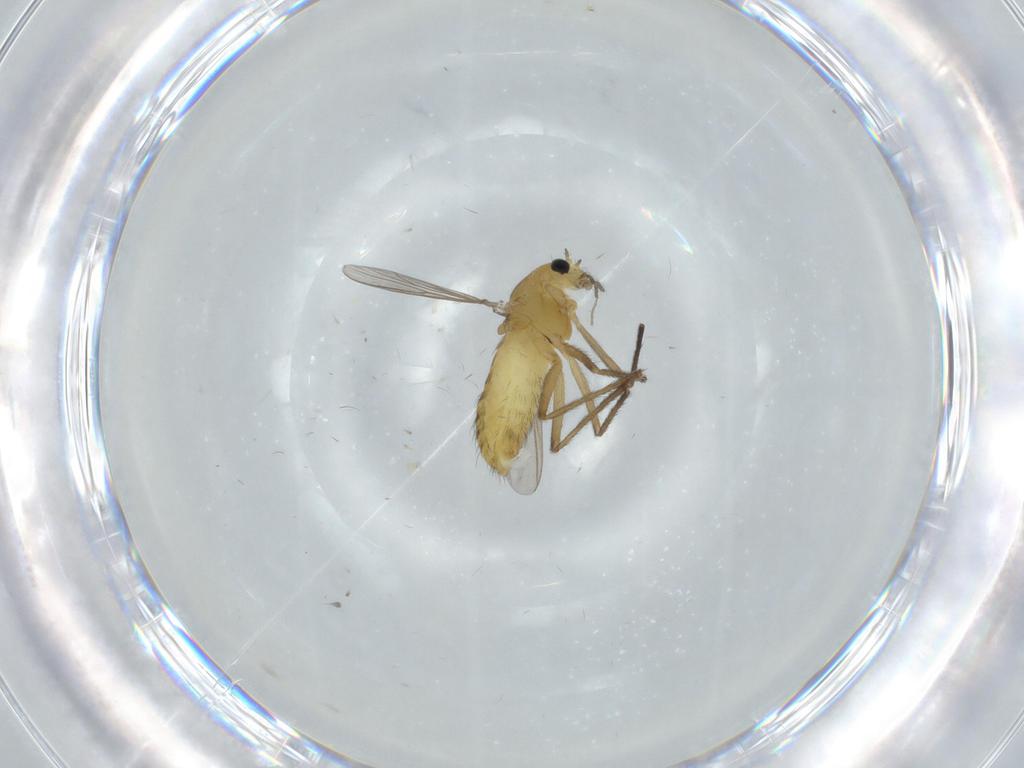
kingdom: Animalia
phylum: Arthropoda
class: Insecta
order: Diptera
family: Chironomidae
